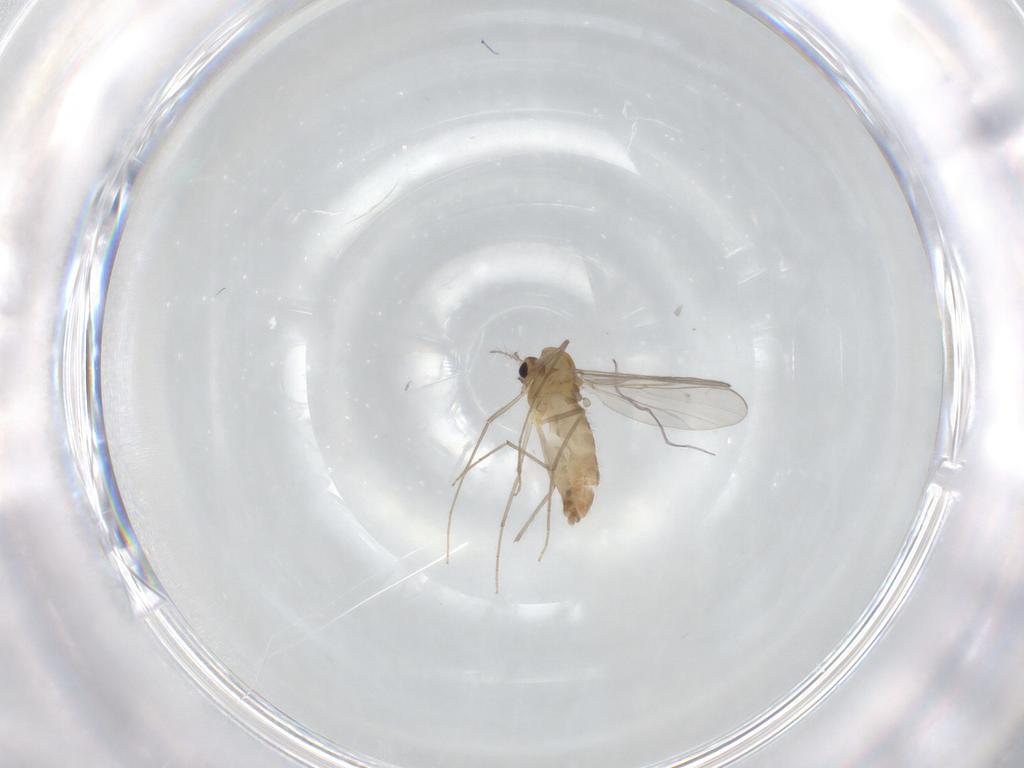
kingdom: Animalia
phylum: Arthropoda
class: Insecta
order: Diptera
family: Chironomidae
